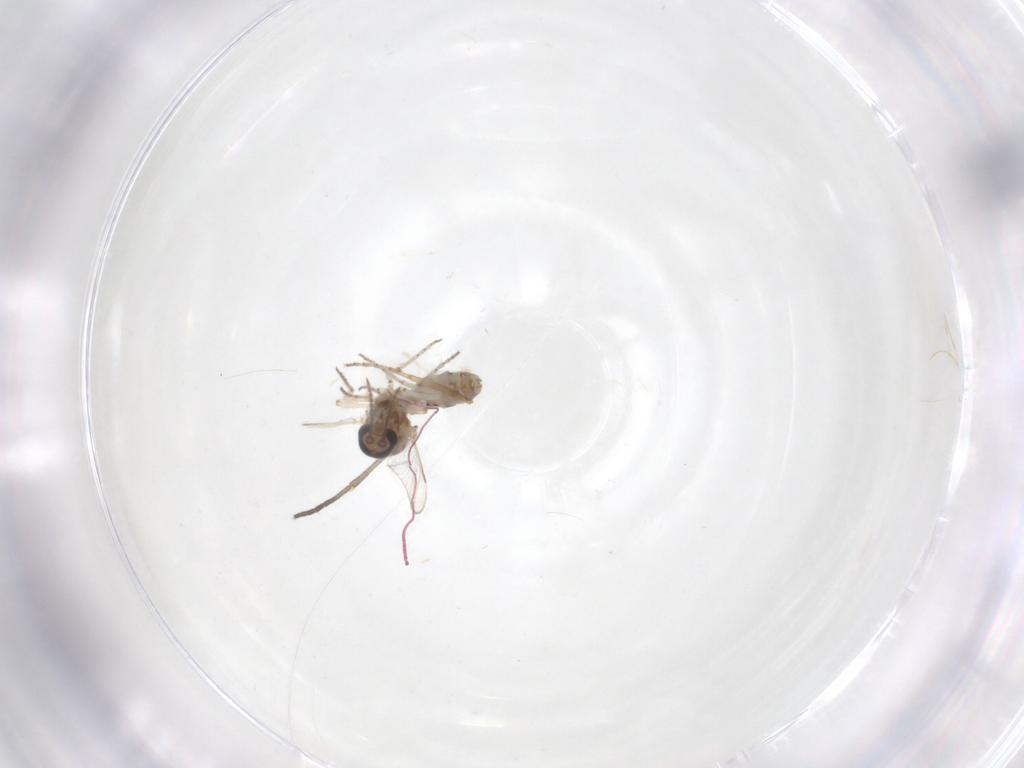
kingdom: Animalia
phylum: Arthropoda
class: Insecta
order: Diptera
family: Ceratopogonidae
